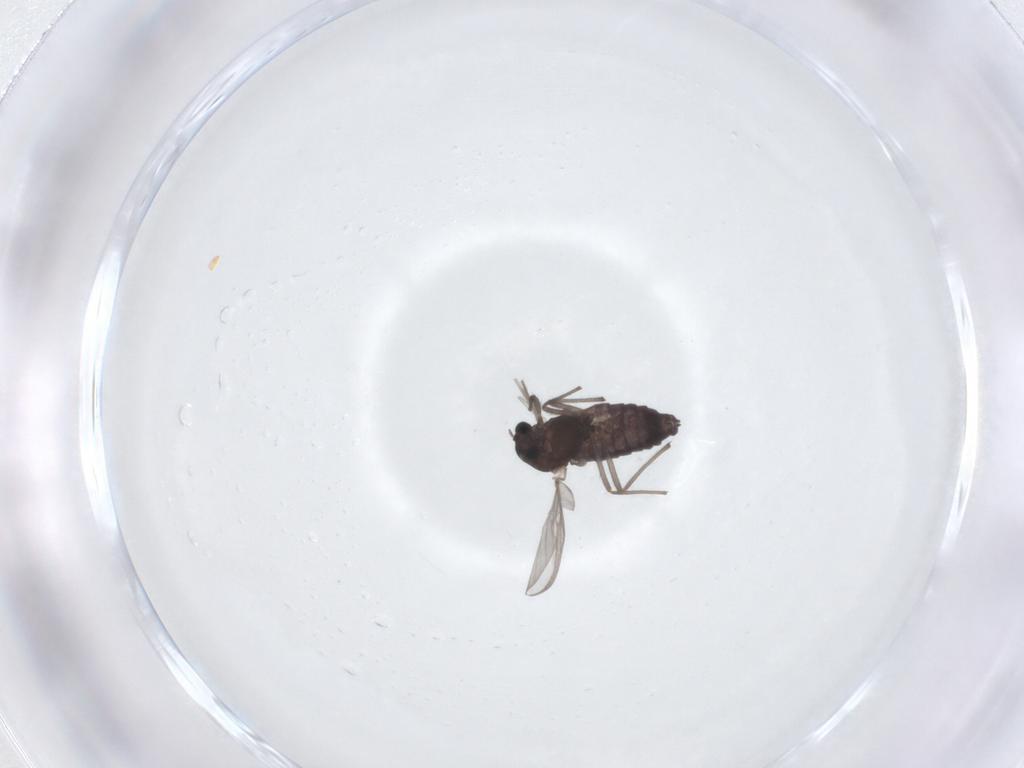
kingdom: Animalia
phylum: Arthropoda
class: Insecta
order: Diptera
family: Chironomidae
